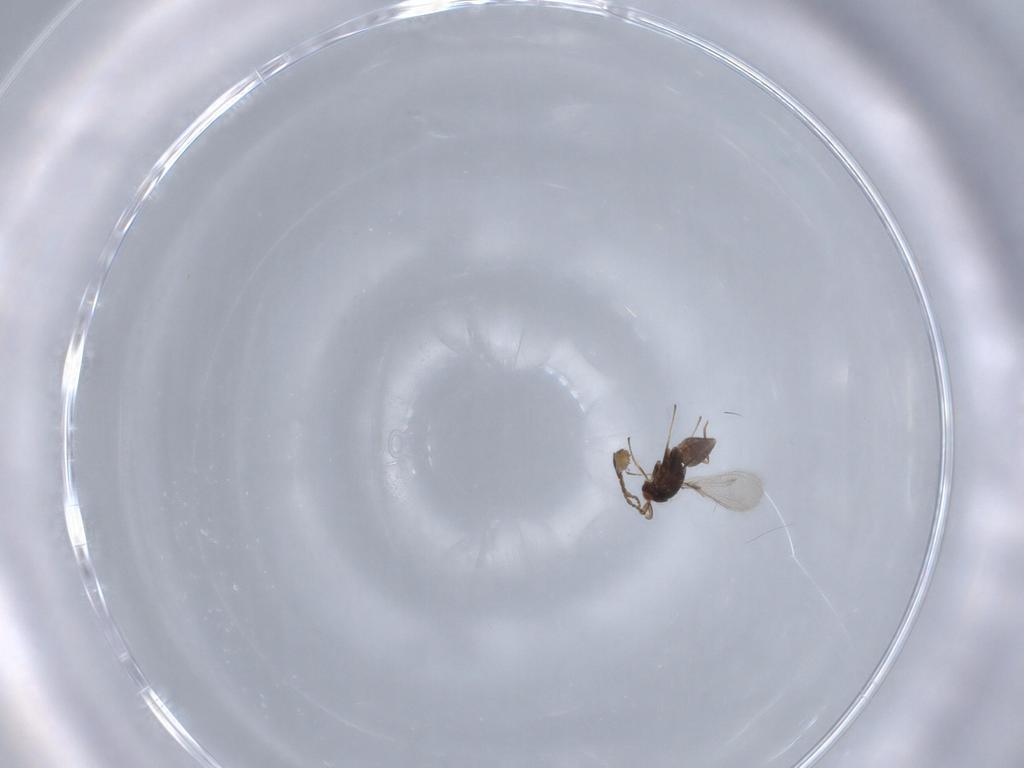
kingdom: Animalia
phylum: Arthropoda
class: Insecta
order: Hymenoptera
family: Mymaridae
